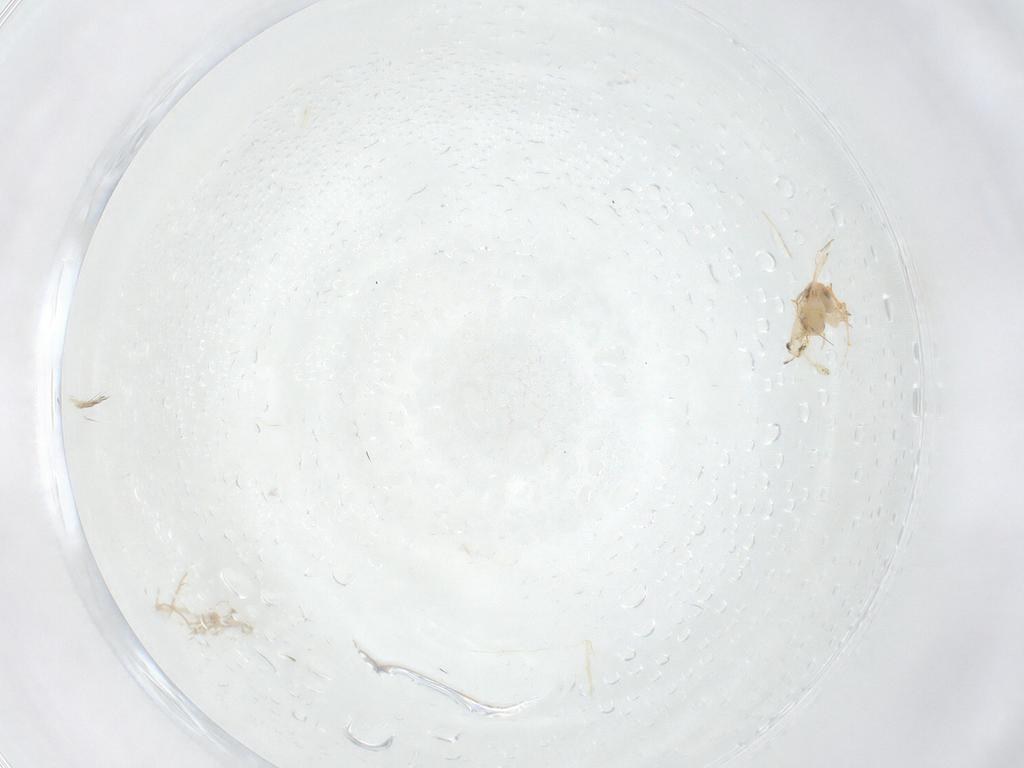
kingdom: Animalia
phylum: Arthropoda
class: Insecta
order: Hemiptera
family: Aleyrodidae
